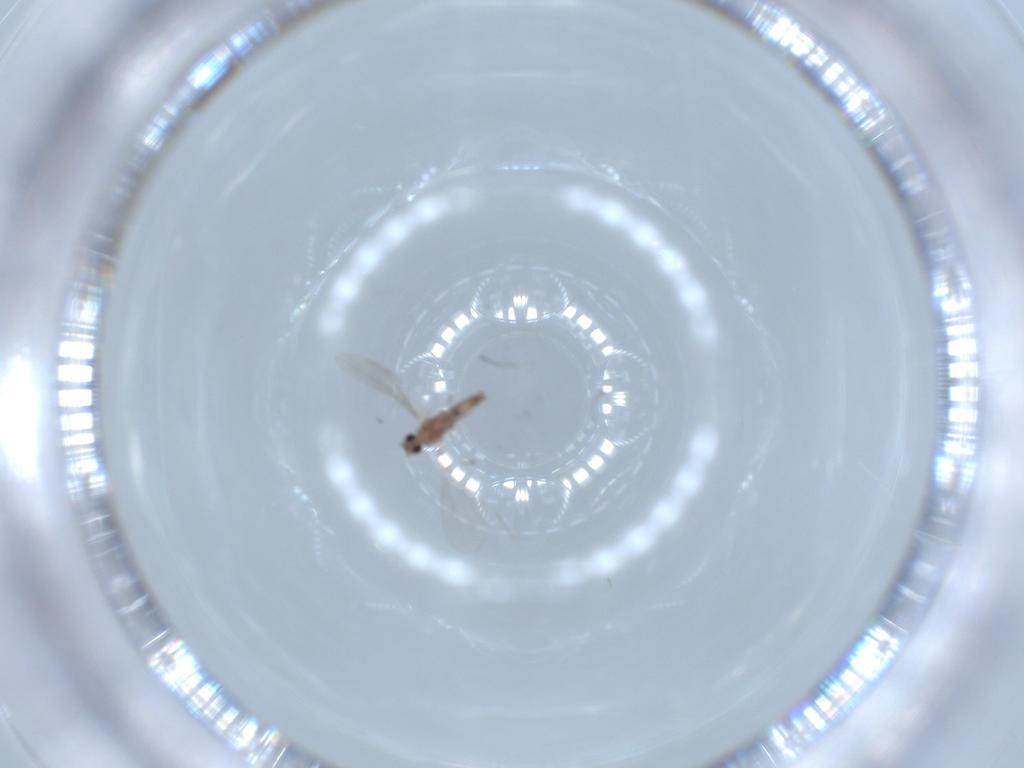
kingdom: Animalia
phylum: Arthropoda
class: Insecta
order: Diptera
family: Cecidomyiidae
